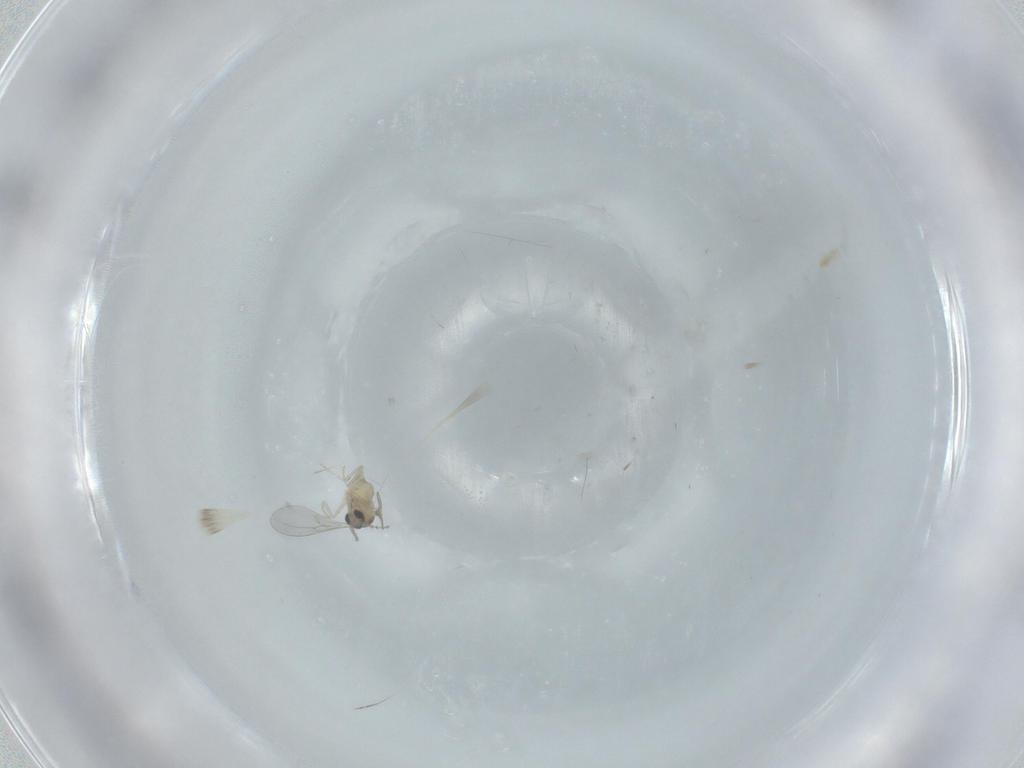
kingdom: Animalia
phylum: Arthropoda
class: Insecta
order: Diptera
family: Cecidomyiidae
